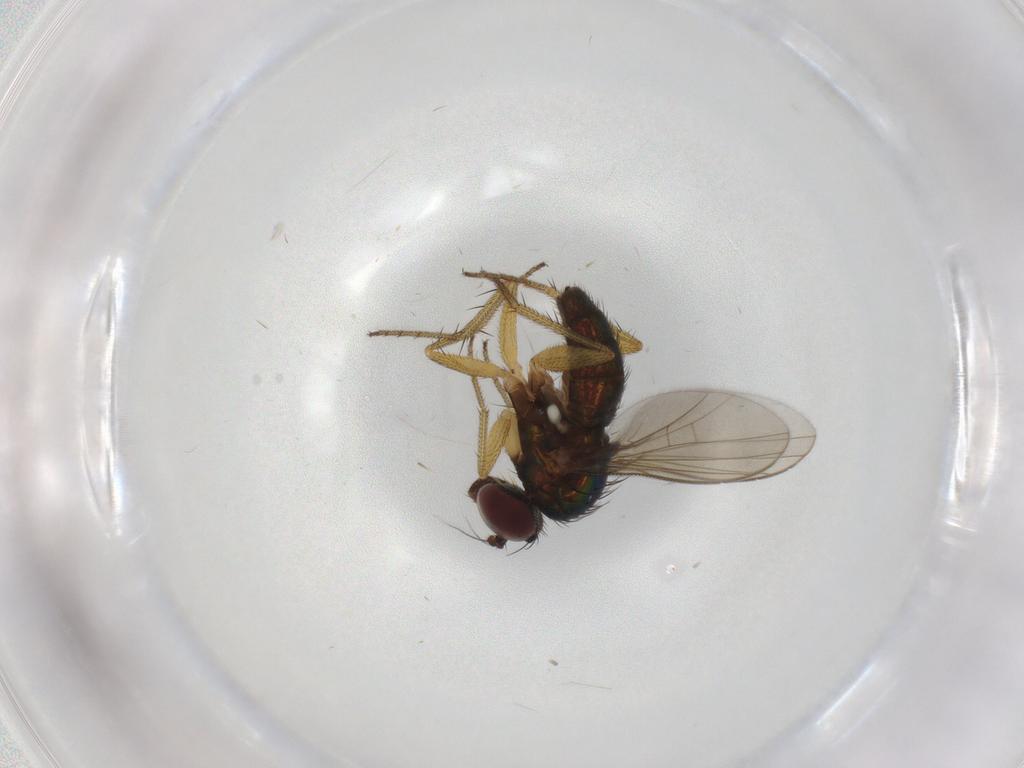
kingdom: Animalia
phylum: Arthropoda
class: Insecta
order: Diptera
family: Dolichopodidae
